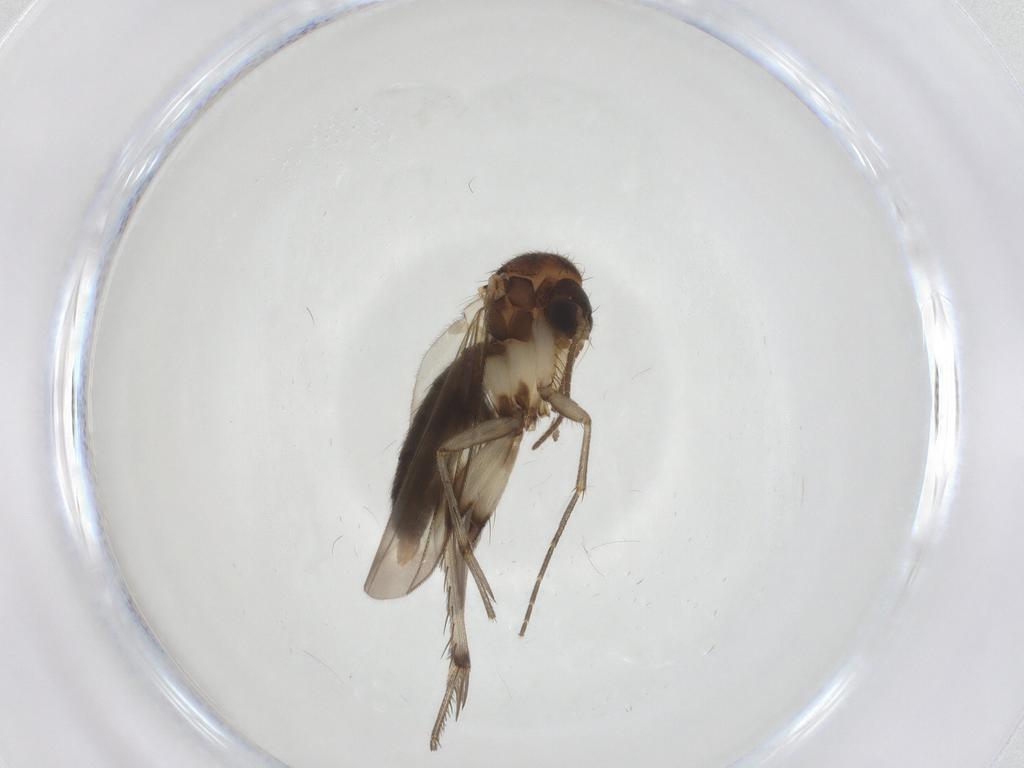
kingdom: Animalia
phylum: Arthropoda
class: Insecta
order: Diptera
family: Mycetophilidae
